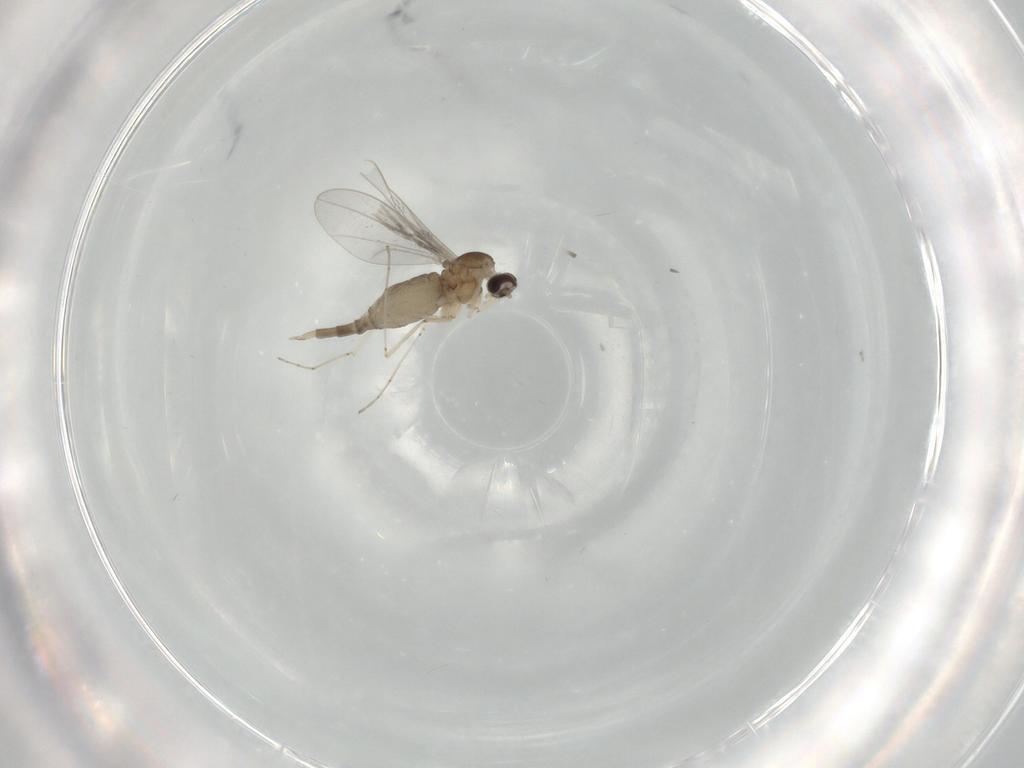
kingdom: Animalia
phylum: Arthropoda
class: Insecta
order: Diptera
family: Cecidomyiidae
